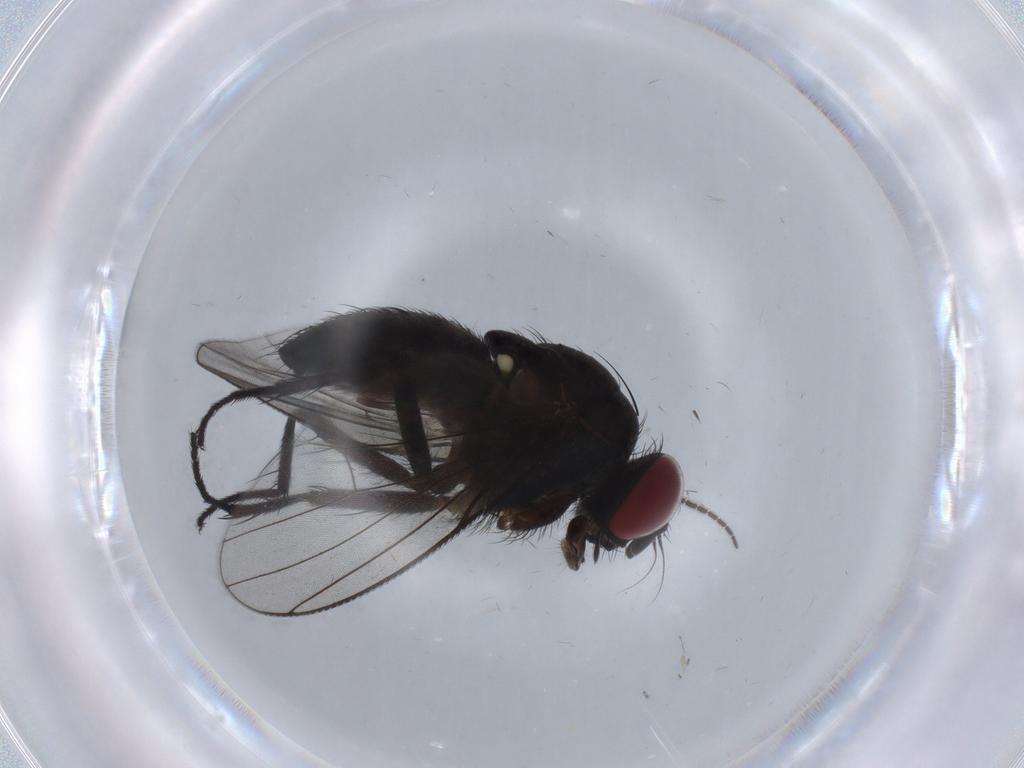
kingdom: Animalia
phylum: Arthropoda
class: Insecta
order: Diptera
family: Muscidae
